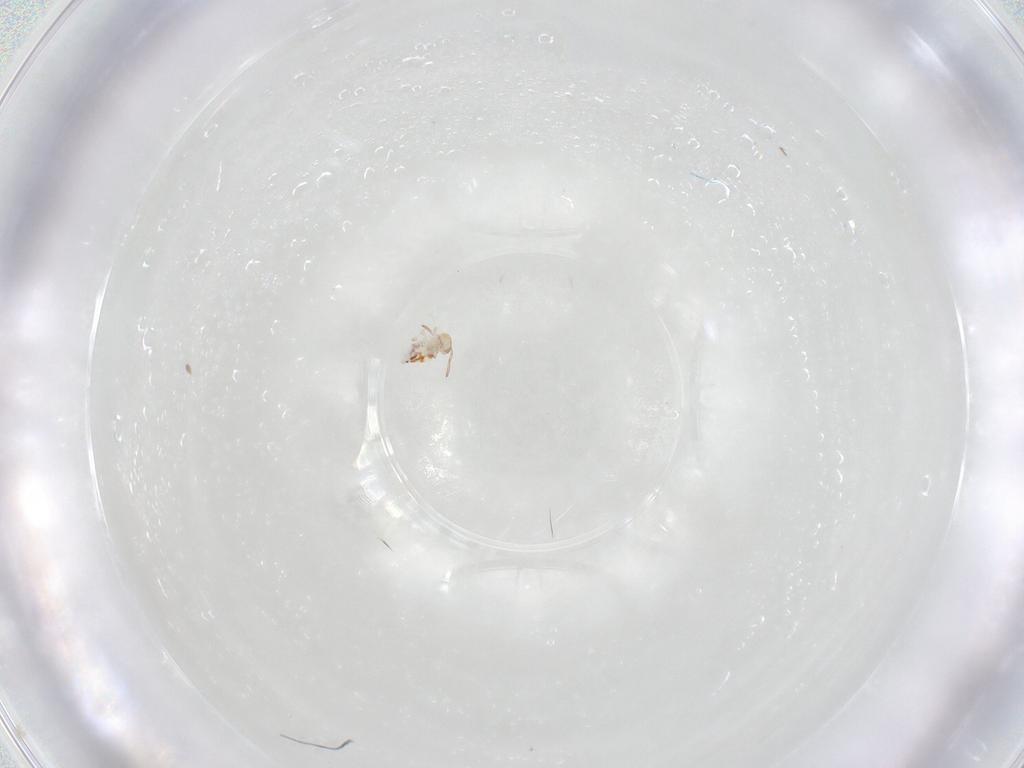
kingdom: Animalia
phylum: Arthropoda
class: Collembola
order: Symphypleona
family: Bourletiellidae
